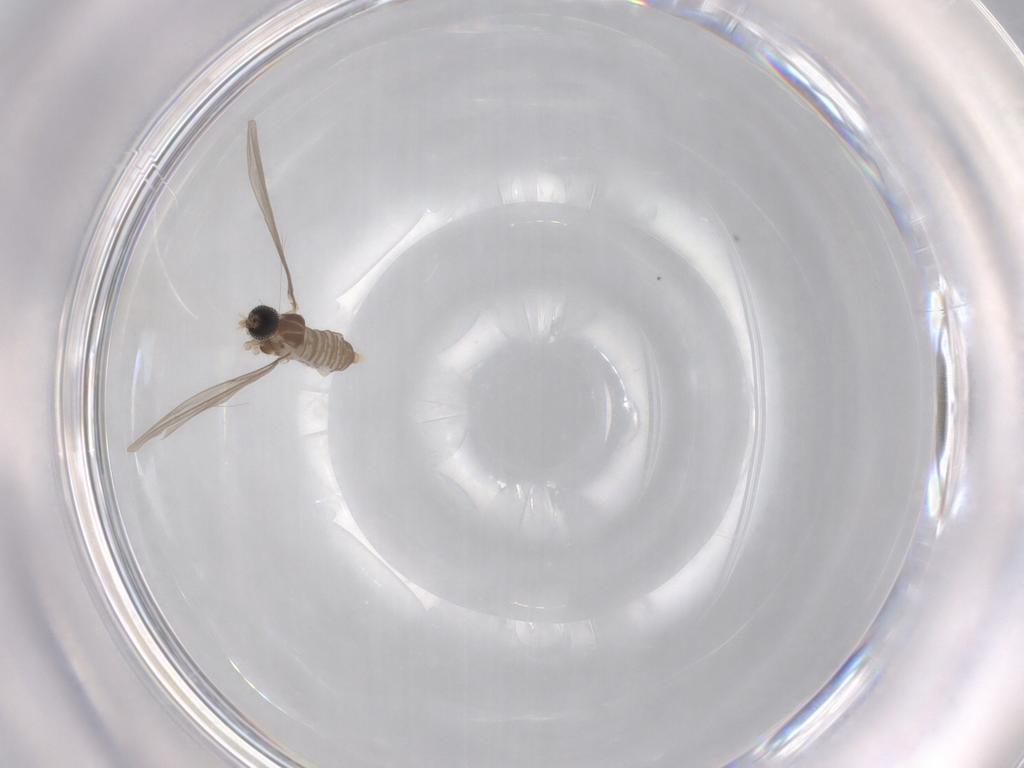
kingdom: Animalia
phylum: Arthropoda
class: Insecta
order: Diptera
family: Cecidomyiidae
